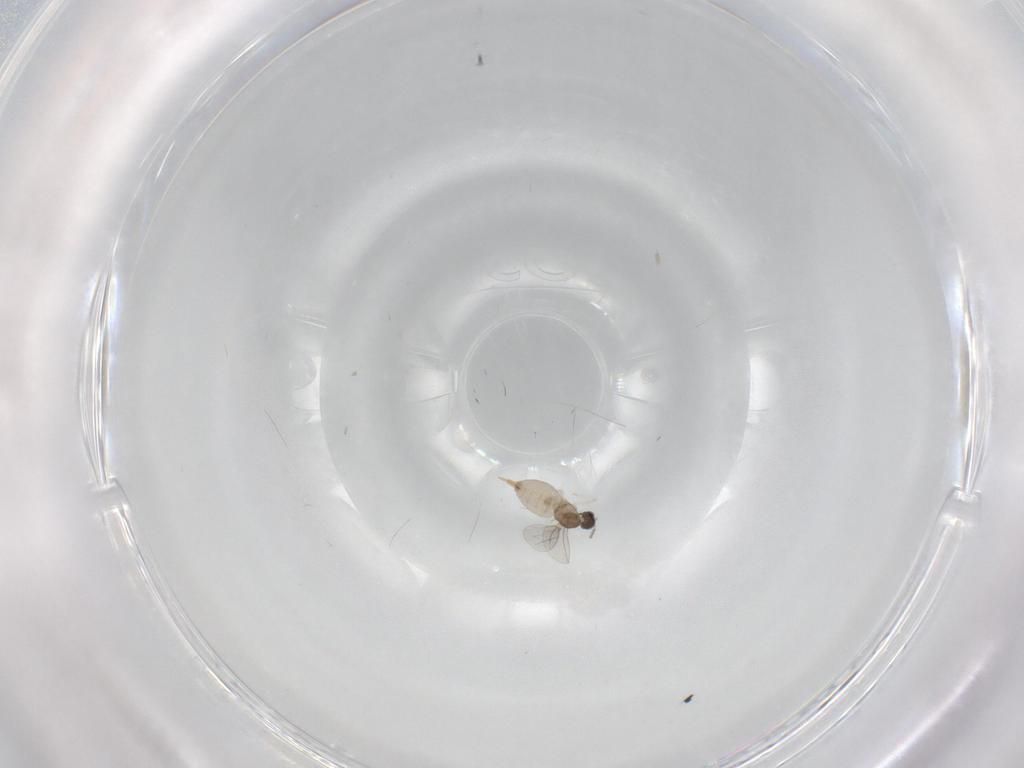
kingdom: Animalia
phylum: Arthropoda
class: Insecta
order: Diptera
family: Cecidomyiidae
